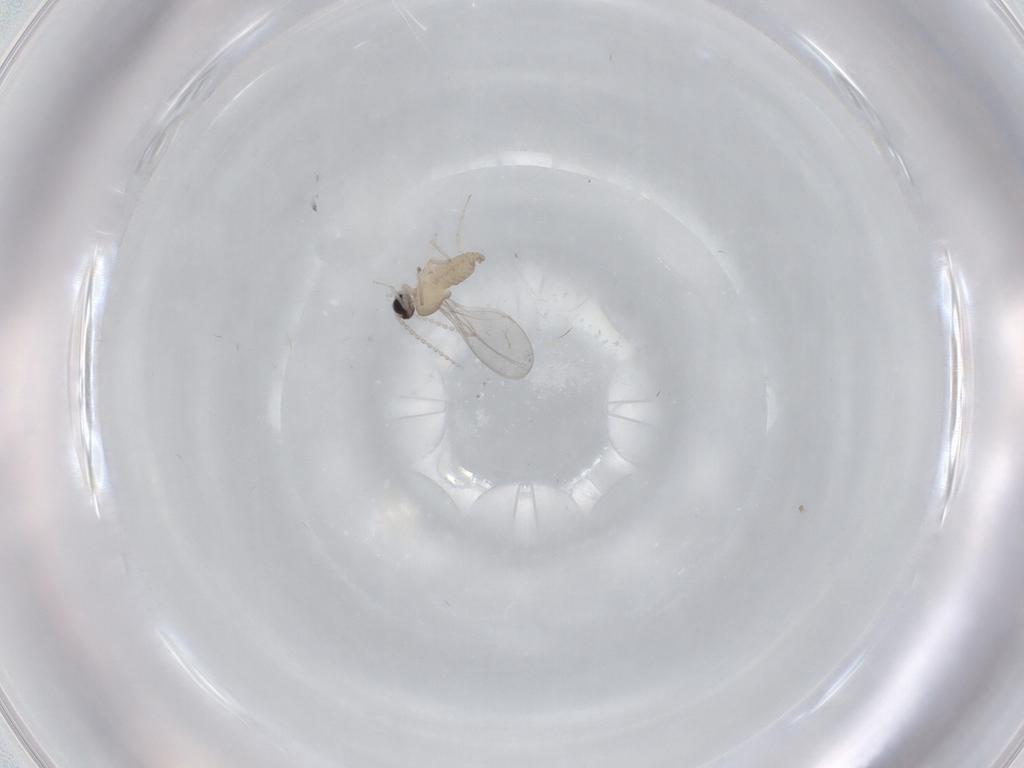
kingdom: Animalia
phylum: Arthropoda
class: Insecta
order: Diptera
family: Cecidomyiidae
